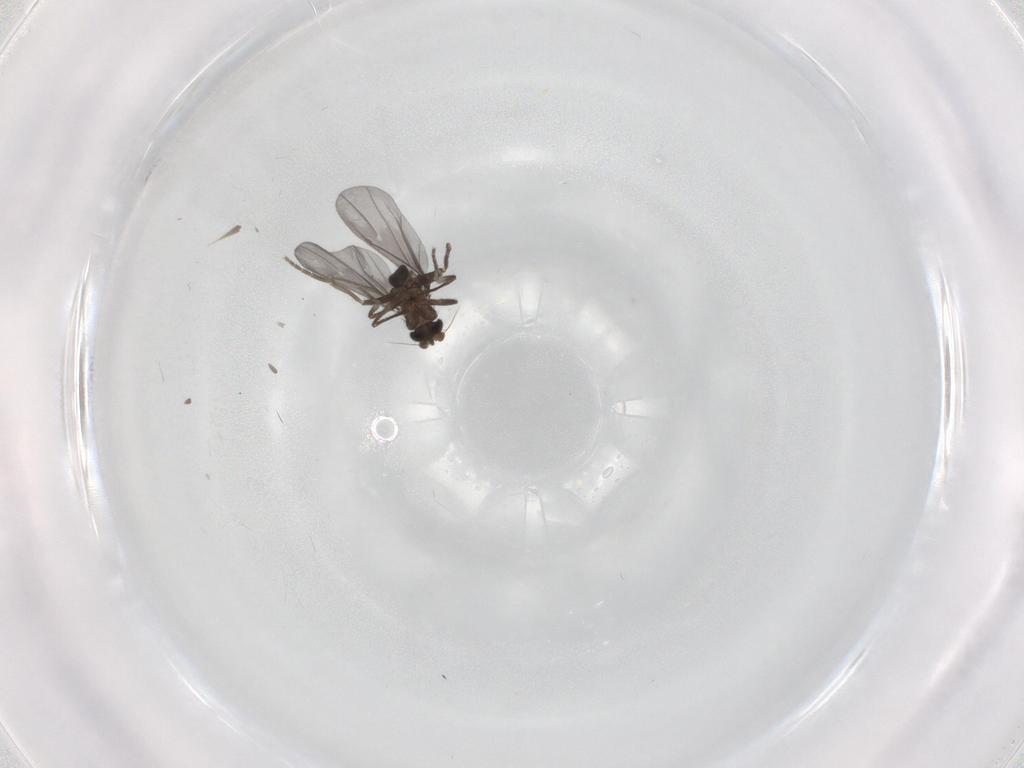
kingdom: Animalia
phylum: Arthropoda
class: Insecta
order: Diptera
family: Phoridae
